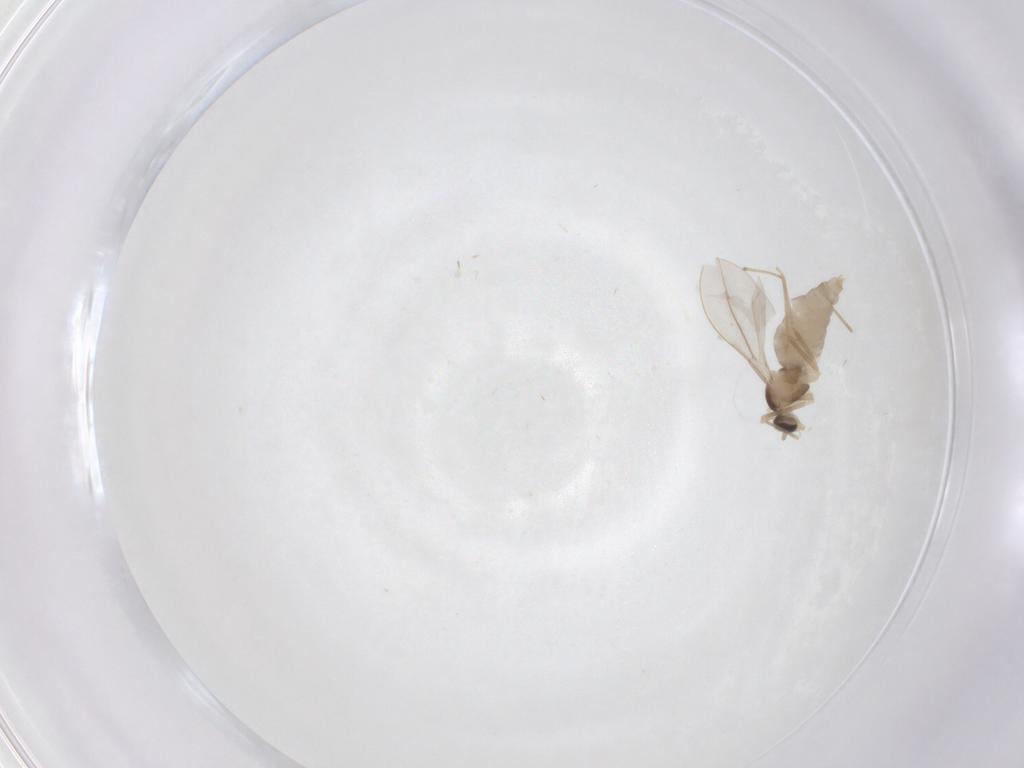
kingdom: Animalia
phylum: Arthropoda
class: Insecta
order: Diptera
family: Cecidomyiidae
